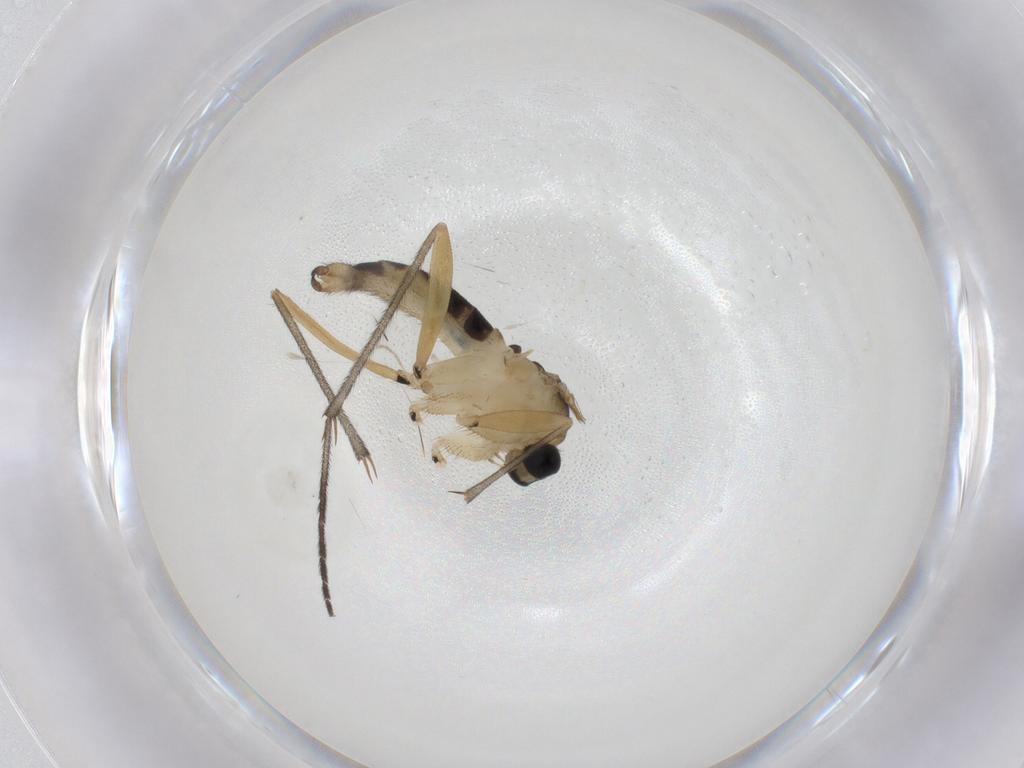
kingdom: Animalia
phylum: Arthropoda
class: Insecta
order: Diptera
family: Sciaridae
